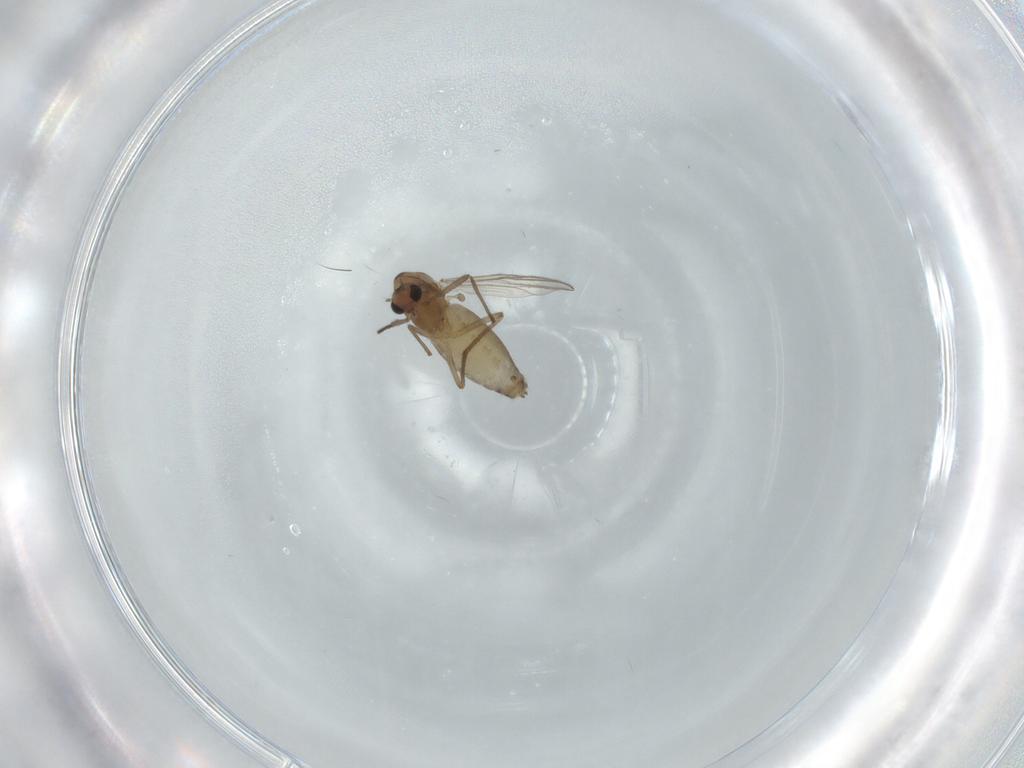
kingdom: Animalia
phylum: Arthropoda
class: Insecta
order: Diptera
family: Chironomidae
